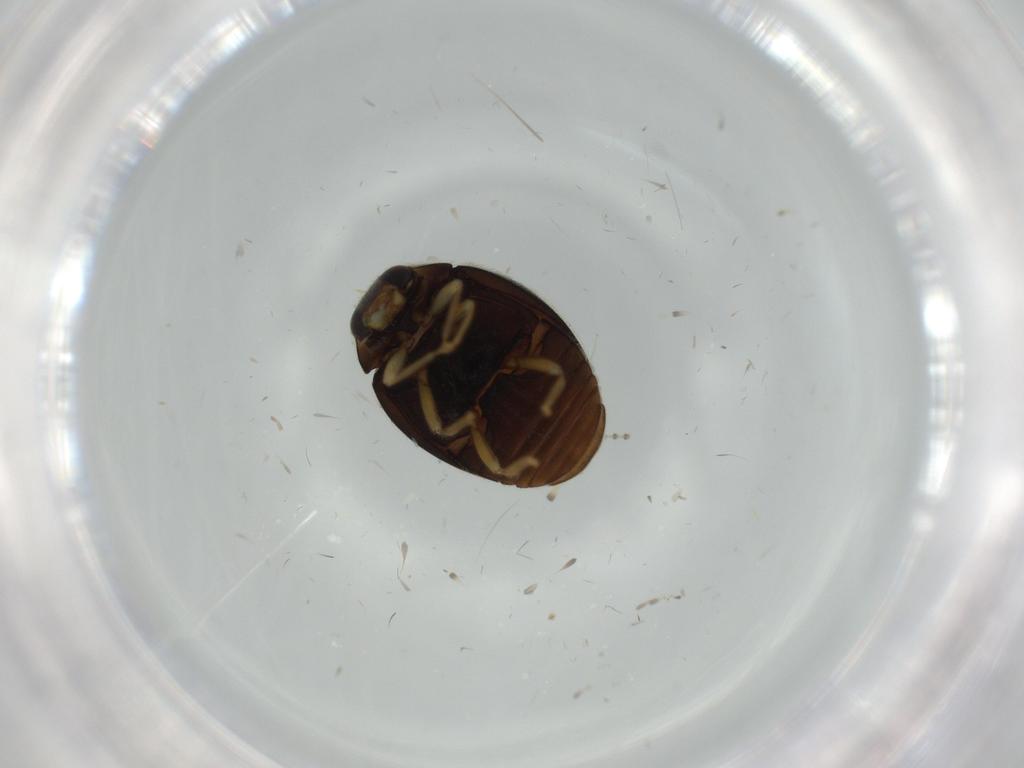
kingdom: Animalia
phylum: Arthropoda
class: Insecta
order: Coleoptera
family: Coccinellidae
